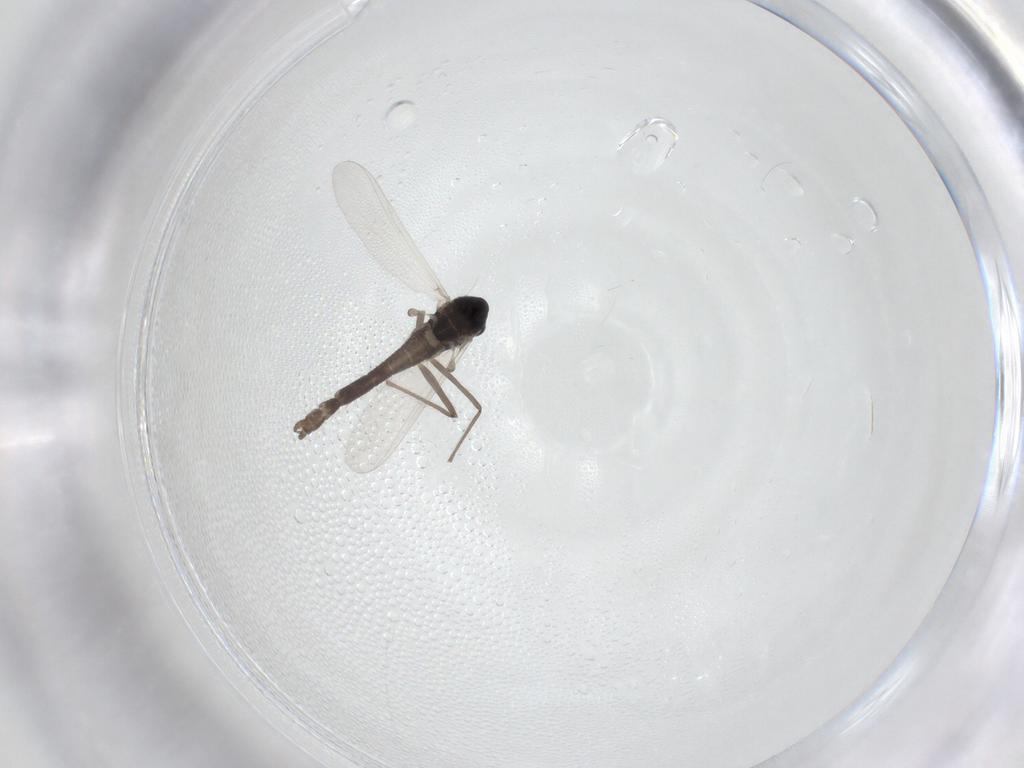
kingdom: Animalia
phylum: Arthropoda
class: Insecta
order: Diptera
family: Chironomidae
